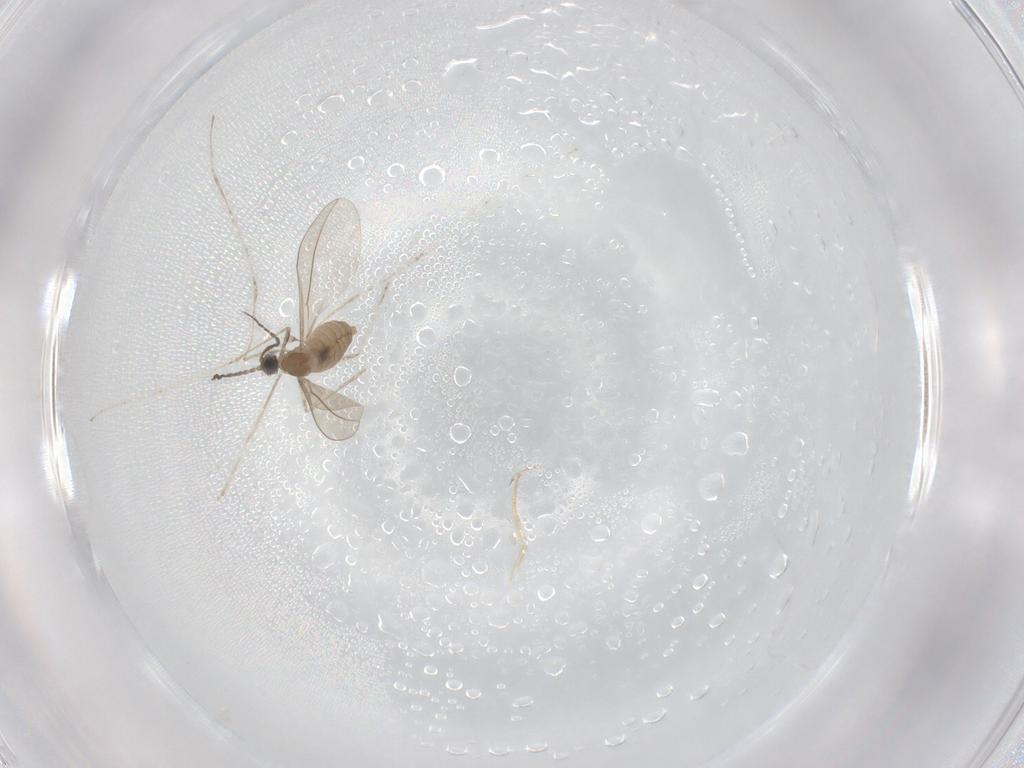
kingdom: Animalia
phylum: Arthropoda
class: Insecta
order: Diptera
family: Cecidomyiidae
